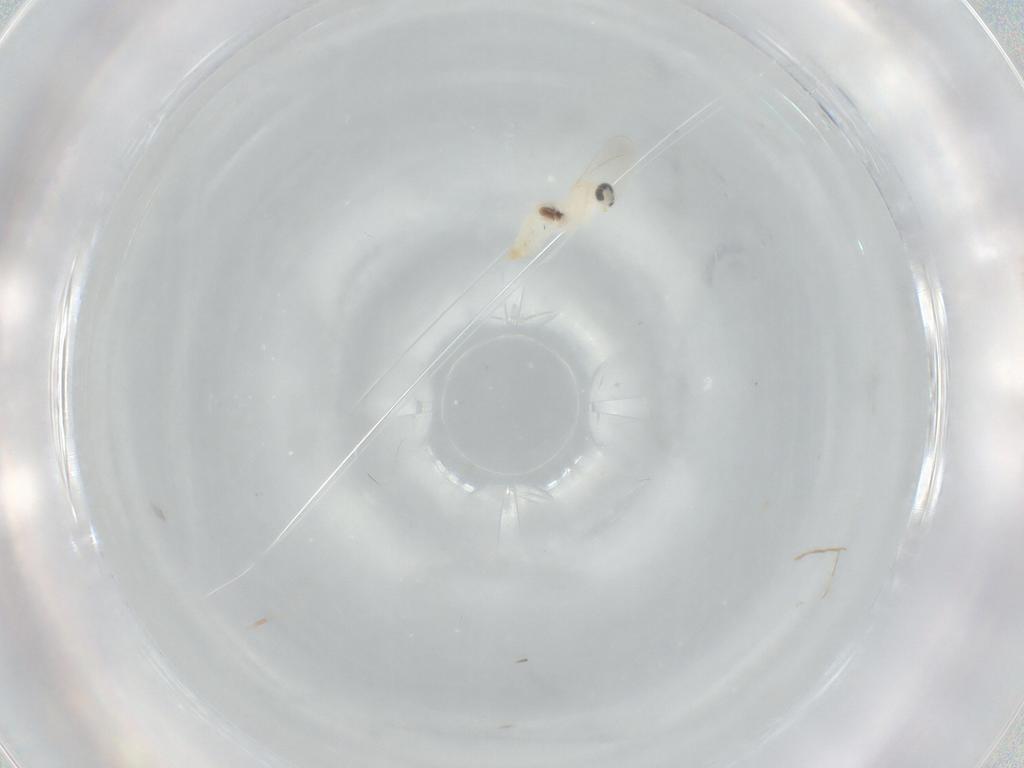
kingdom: Animalia
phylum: Arthropoda
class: Insecta
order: Diptera
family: Cecidomyiidae
